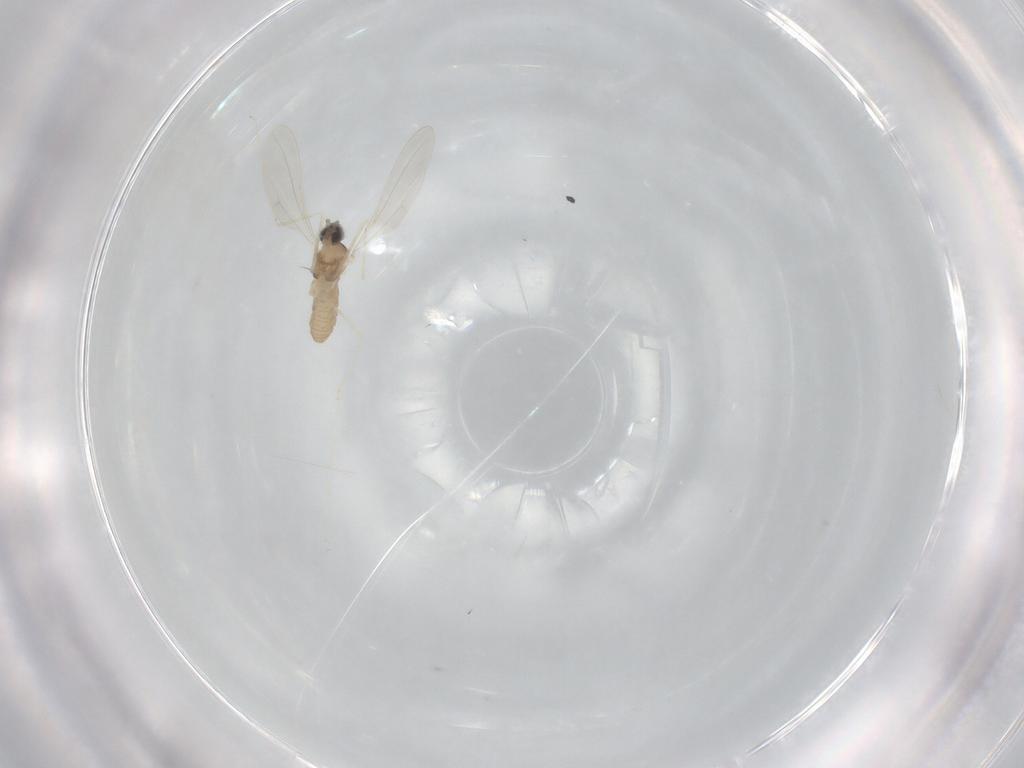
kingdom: Animalia
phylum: Arthropoda
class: Insecta
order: Diptera
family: Cecidomyiidae
